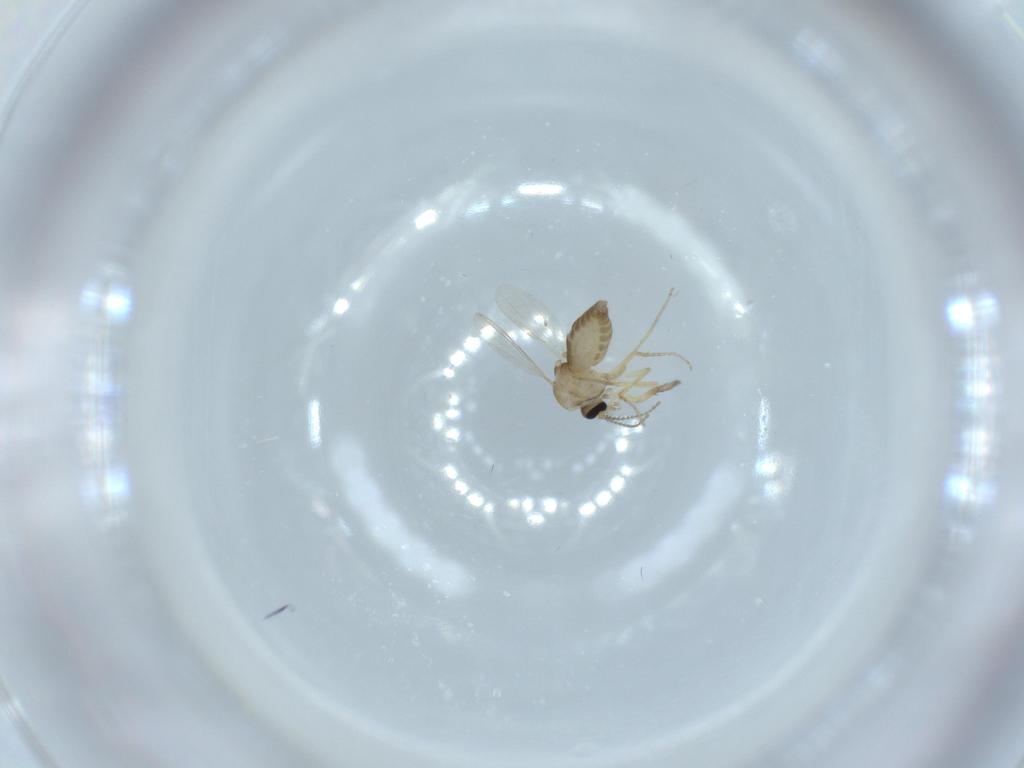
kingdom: Animalia
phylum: Arthropoda
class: Insecta
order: Diptera
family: Ceratopogonidae
